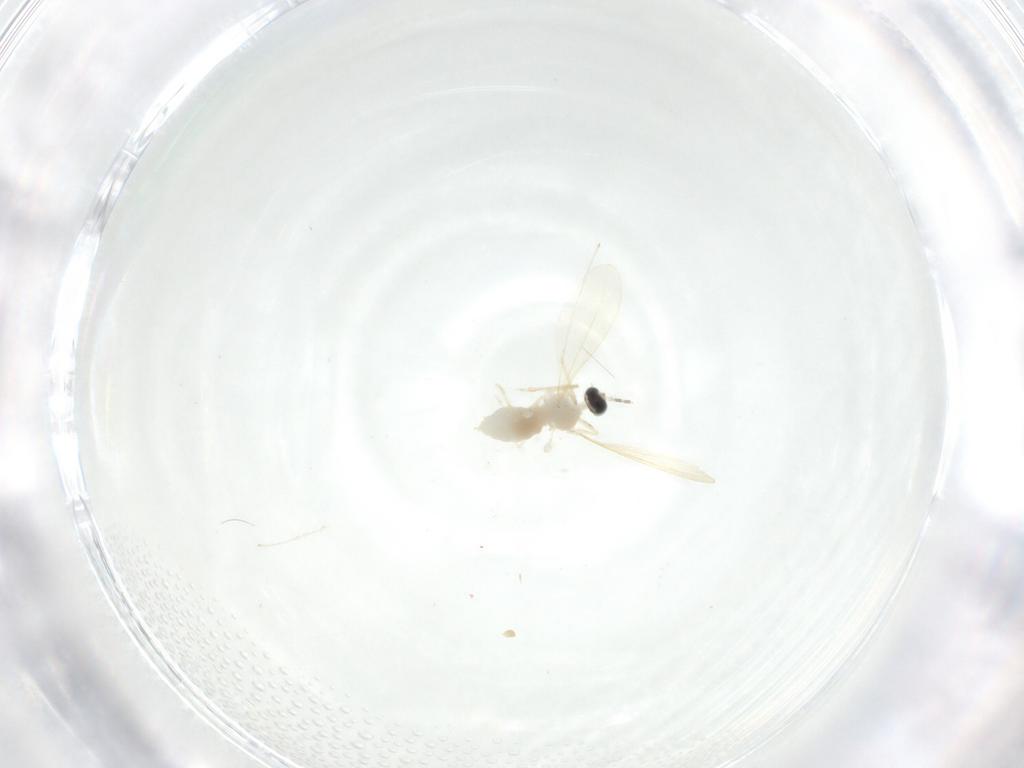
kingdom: Animalia
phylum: Arthropoda
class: Insecta
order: Diptera
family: Cecidomyiidae
